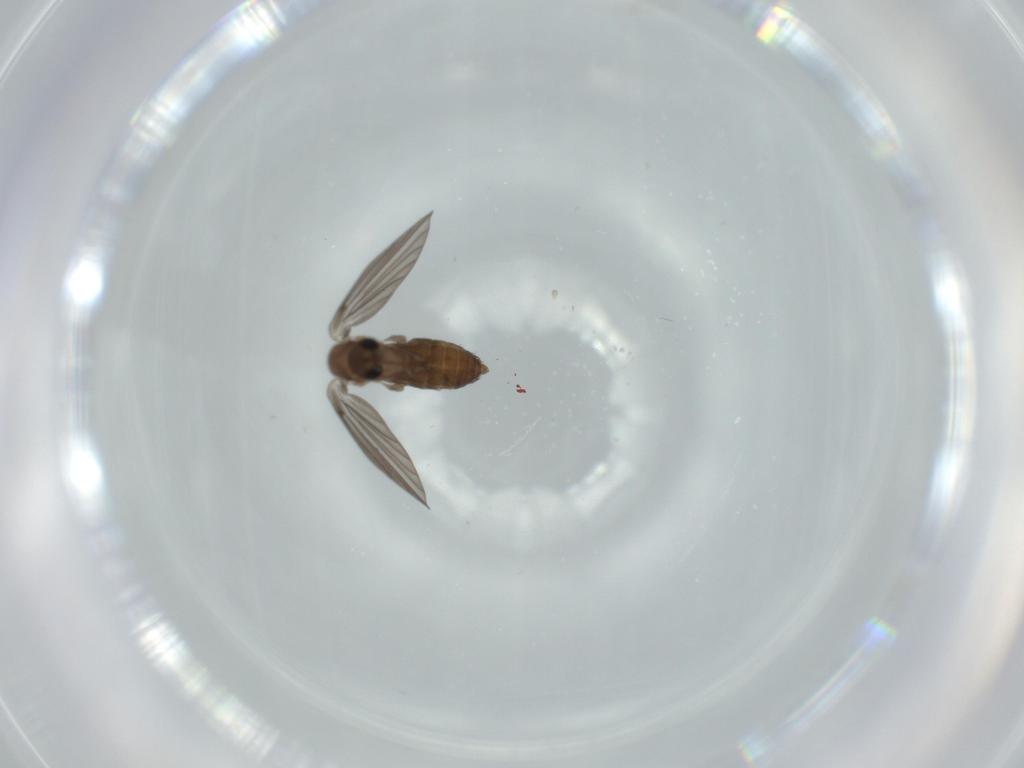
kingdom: Animalia
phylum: Arthropoda
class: Insecta
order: Diptera
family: Psychodidae
